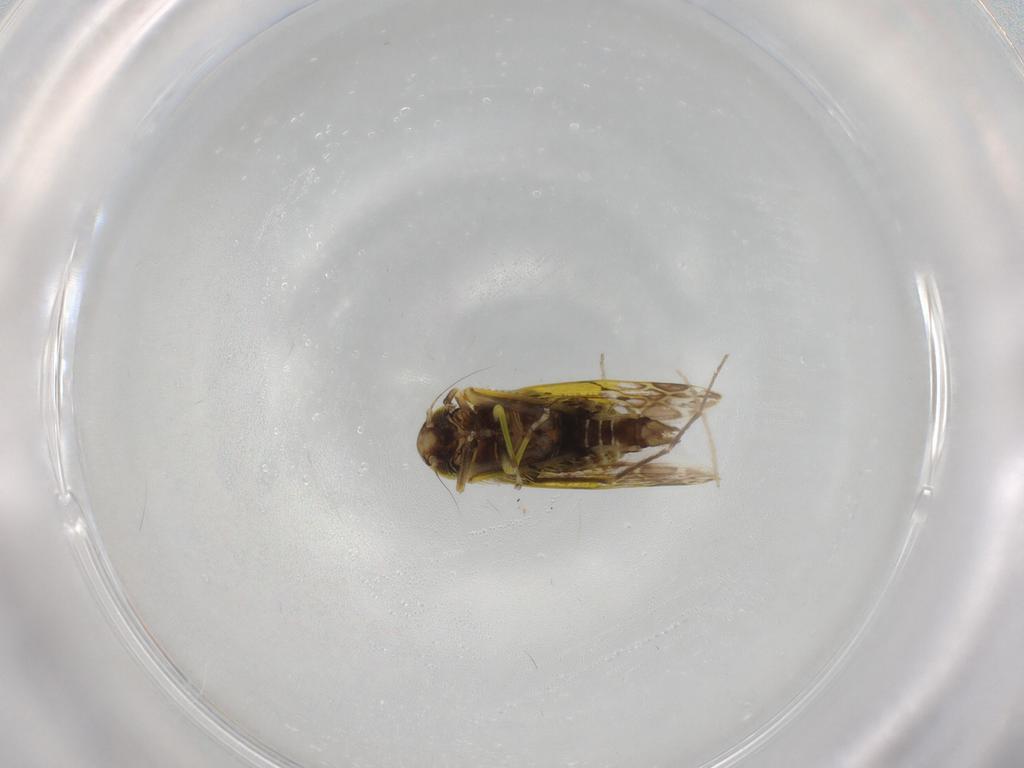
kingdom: Animalia
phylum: Arthropoda
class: Insecta
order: Hemiptera
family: Cicadellidae
